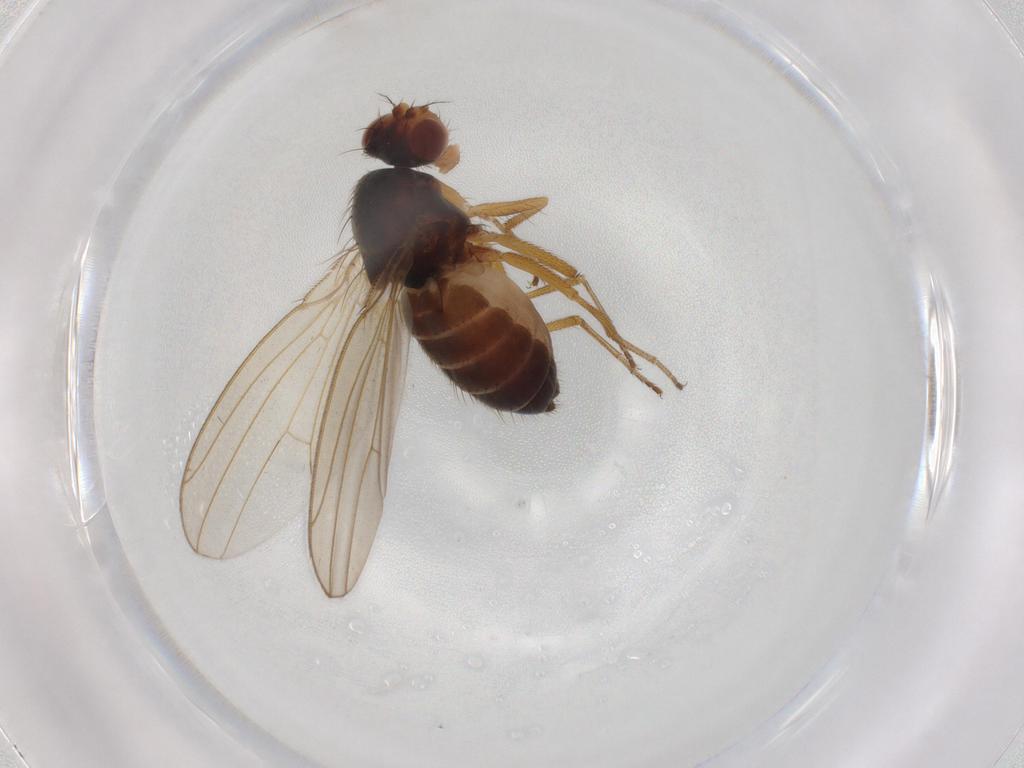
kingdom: Animalia
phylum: Arthropoda
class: Insecta
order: Diptera
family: Drosophilidae
